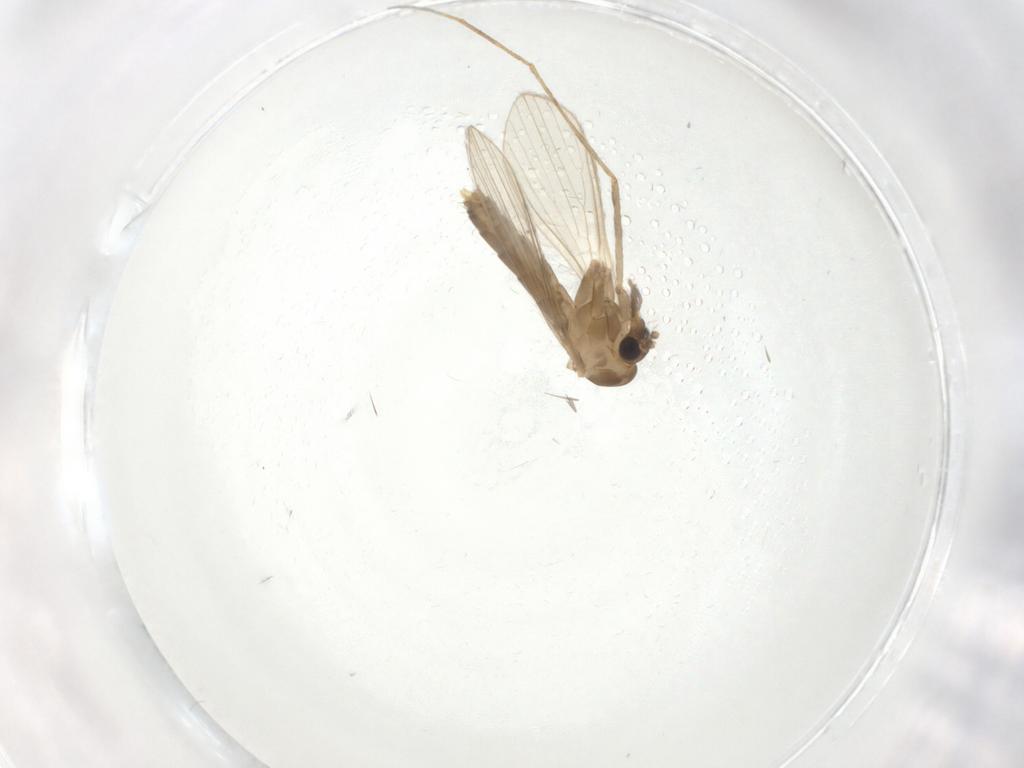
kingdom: Animalia
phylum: Arthropoda
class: Insecta
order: Diptera
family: Psychodidae
